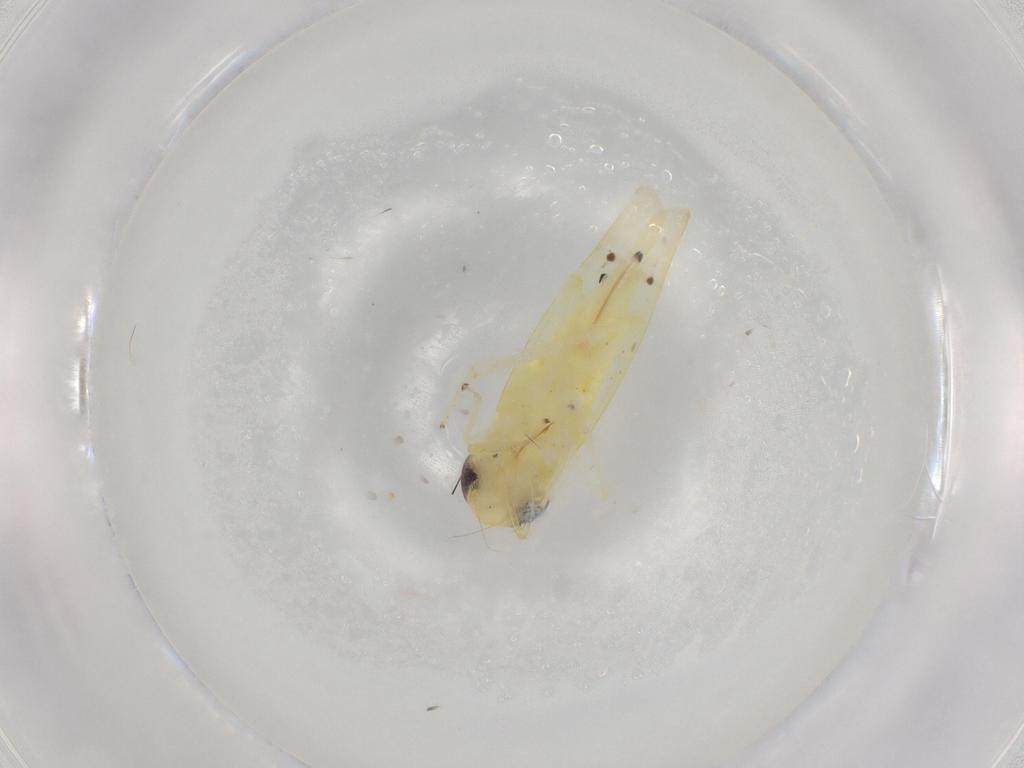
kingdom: Animalia
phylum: Arthropoda
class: Insecta
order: Hemiptera
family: Cicadellidae
